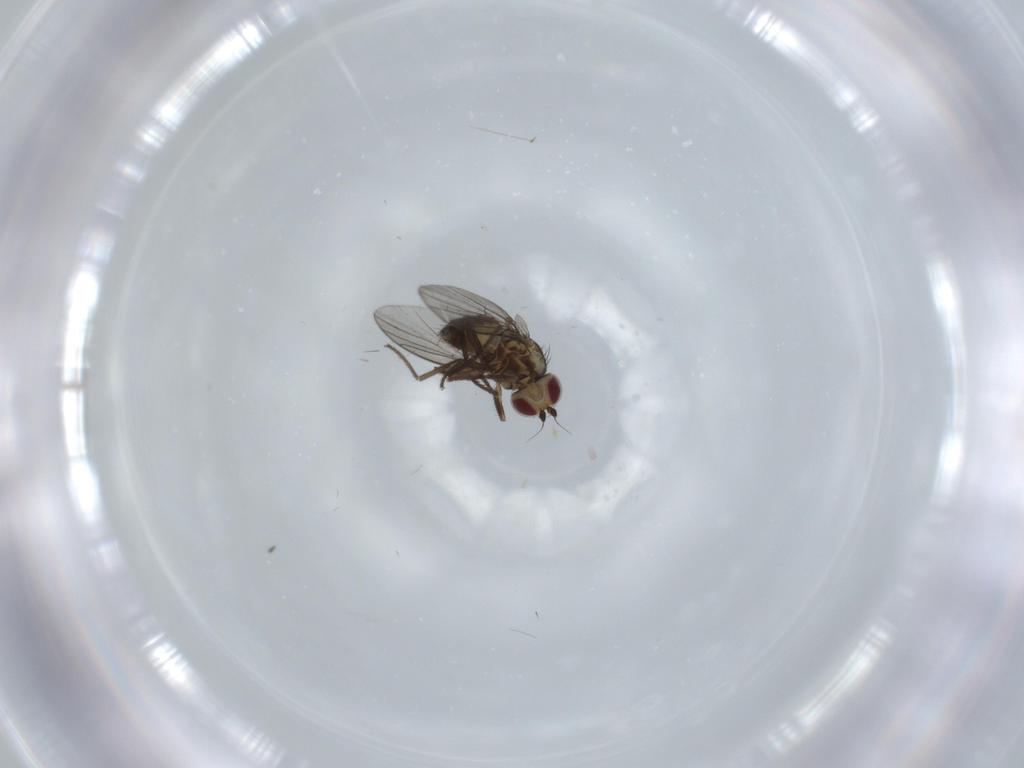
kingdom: Animalia
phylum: Arthropoda
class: Insecta
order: Diptera
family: Agromyzidae
